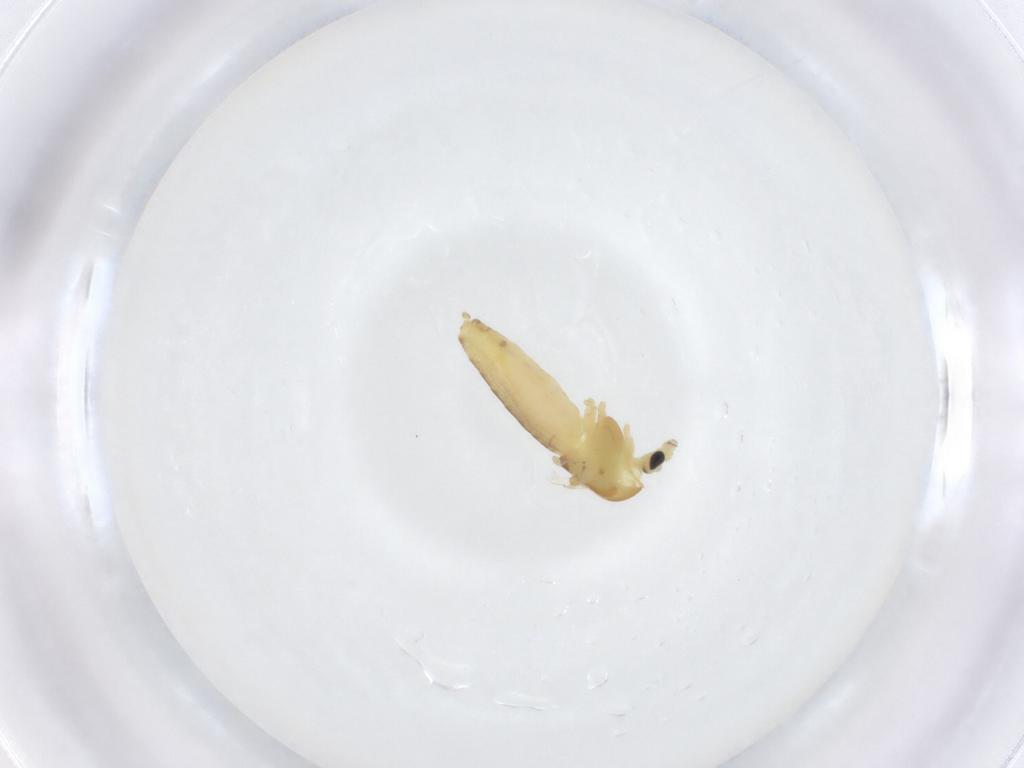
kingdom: Animalia
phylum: Arthropoda
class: Insecta
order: Diptera
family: Chironomidae
